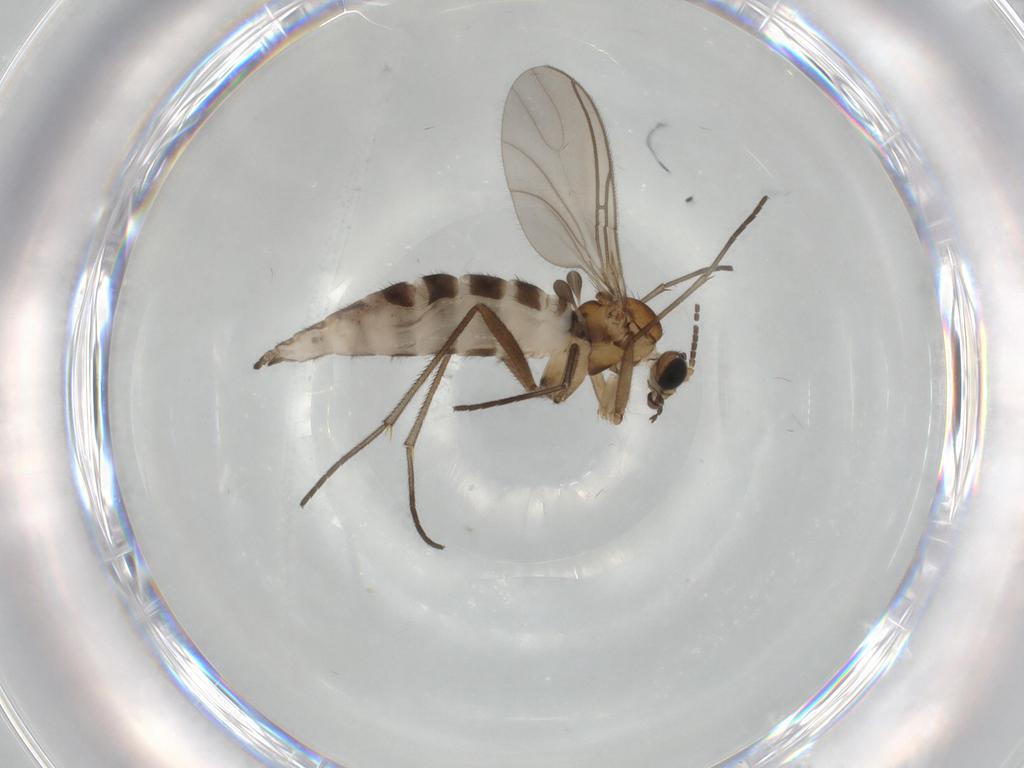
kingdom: Animalia
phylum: Arthropoda
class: Insecta
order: Diptera
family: Sciaridae
